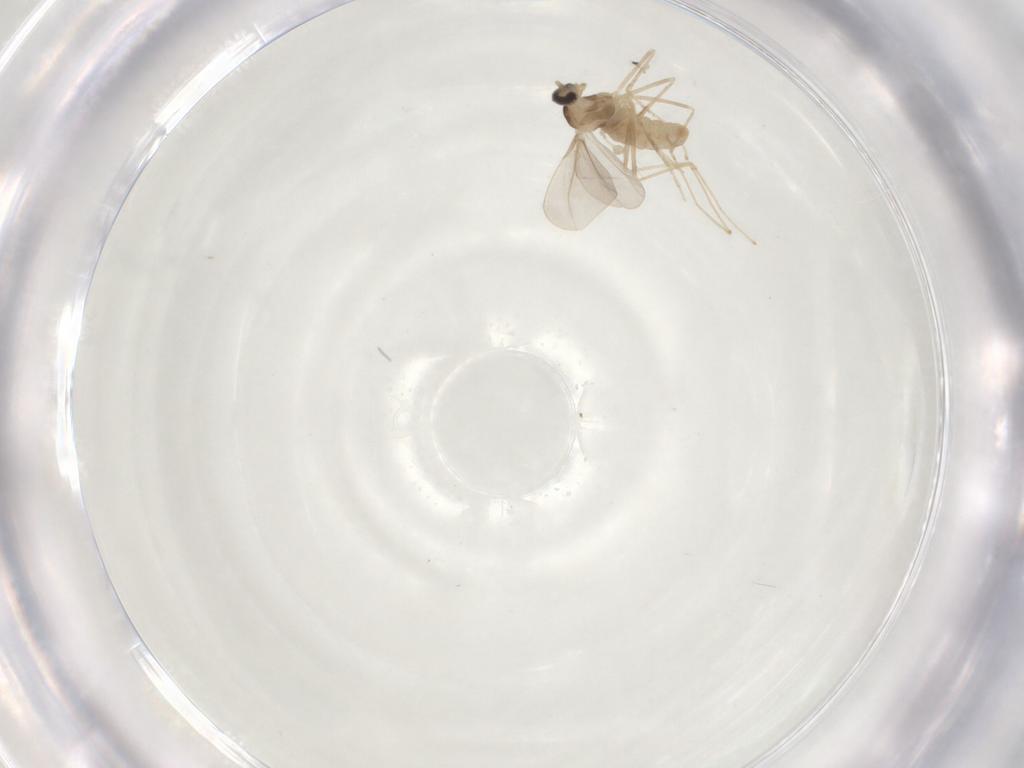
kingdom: Animalia
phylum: Arthropoda
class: Insecta
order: Diptera
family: Cecidomyiidae
